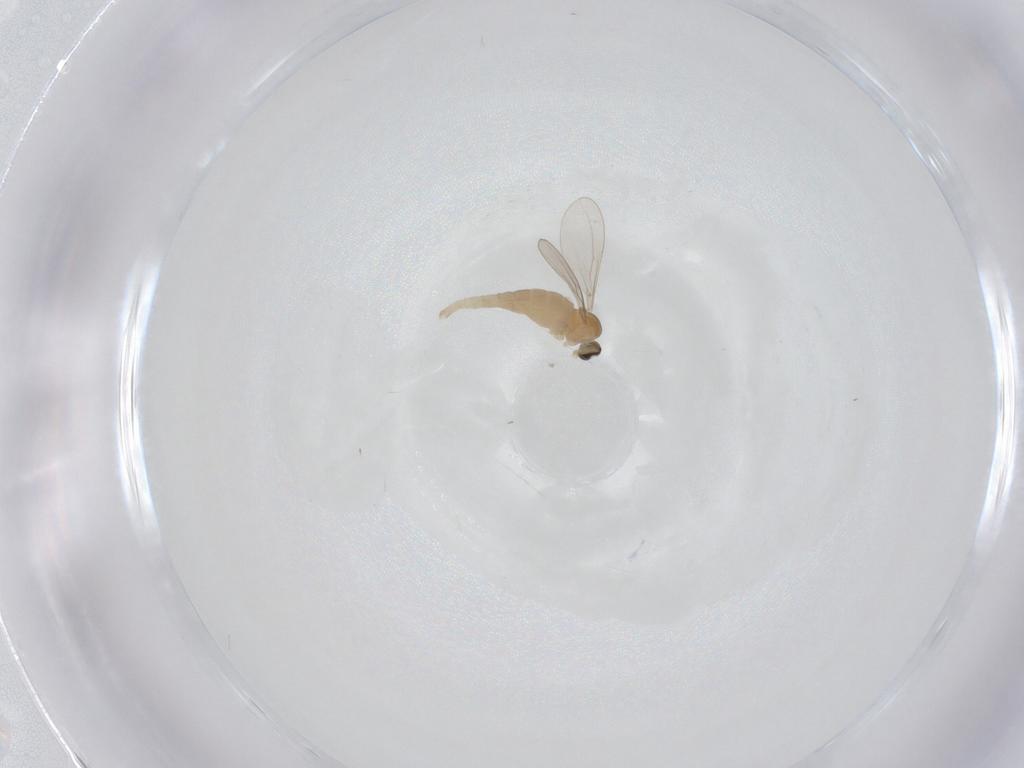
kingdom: Animalia
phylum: Arthropoda
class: Insecta
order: Diptera
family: Cecidomyiidae
